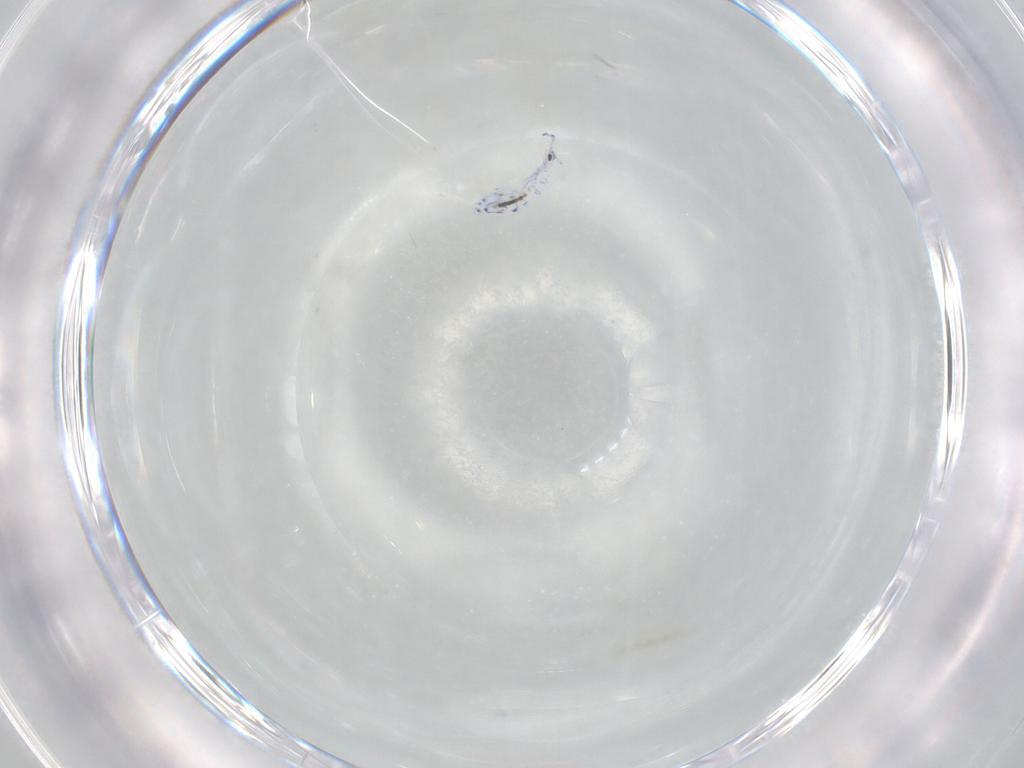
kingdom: Animalia
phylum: Arthropoda
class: Collembola
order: Entomobryomorpha
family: Entomobryidae
